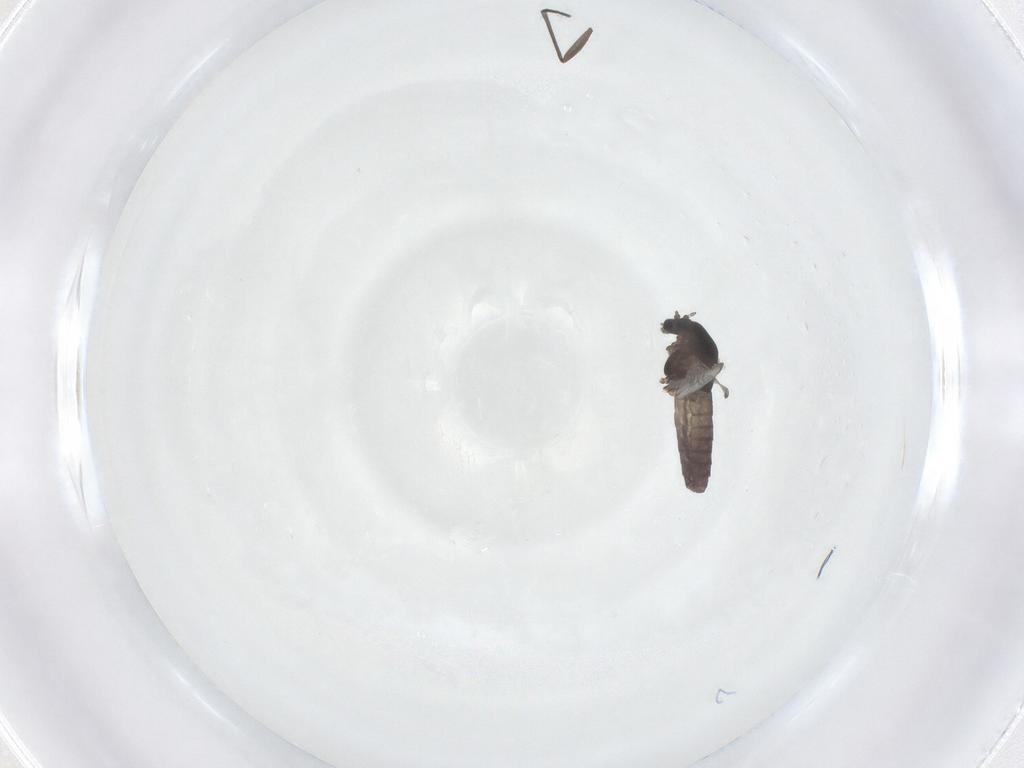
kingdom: Animalia
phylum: Arthropoda
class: Insecta
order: Diptera
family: Chironomidae
